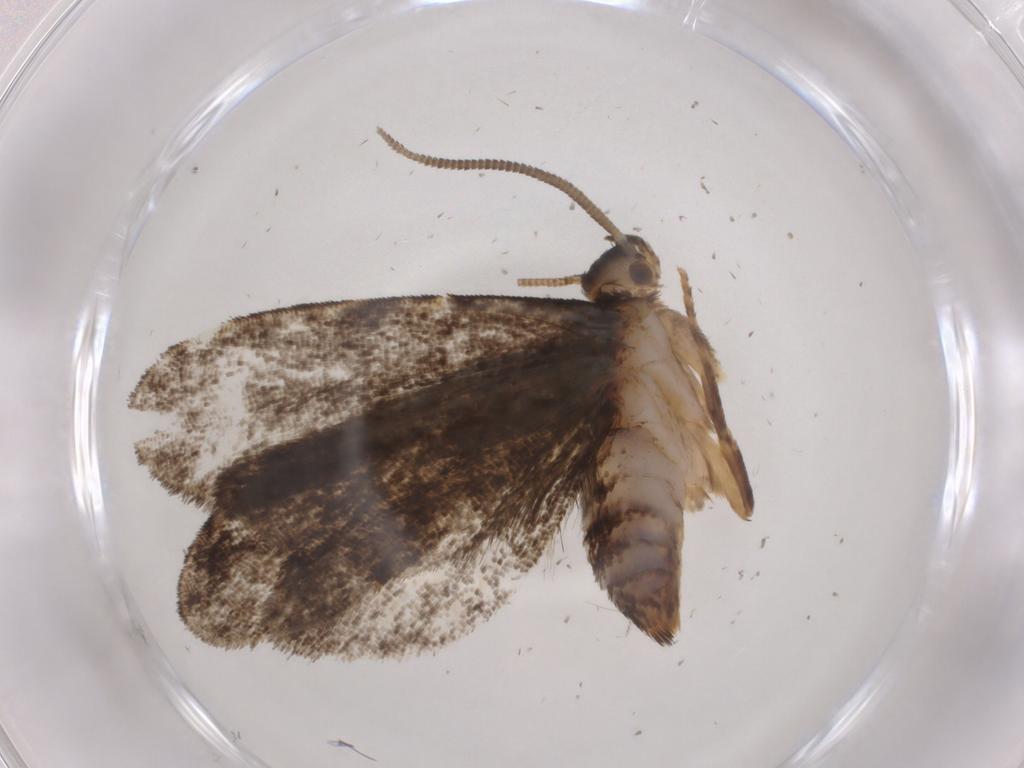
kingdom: Animalia
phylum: Arthropoda
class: Insecta
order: Lepidoptera
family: Dryadaulidae
